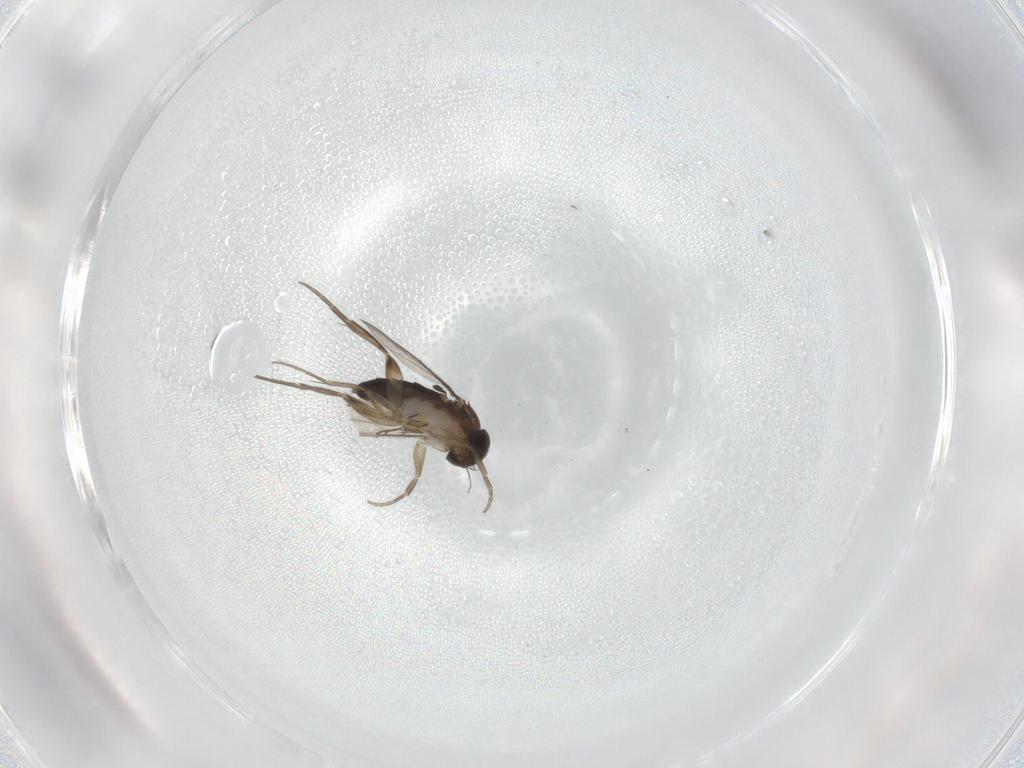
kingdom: Animalia
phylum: Arthropoda
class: Insecta
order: Diptera
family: Phoridae
